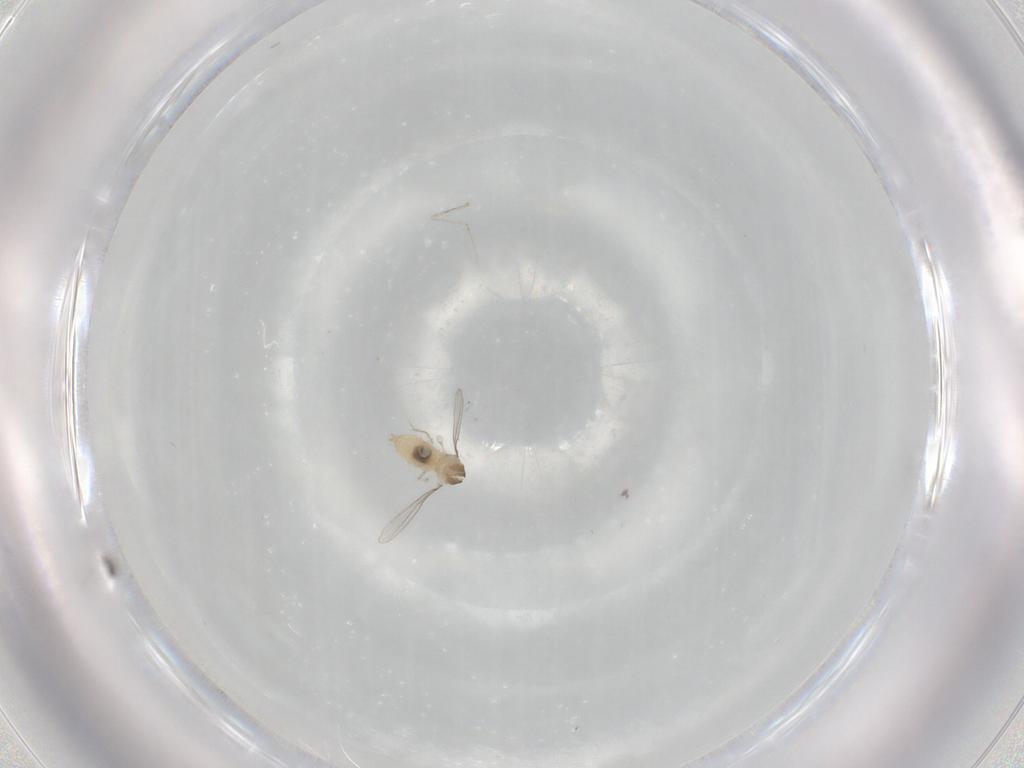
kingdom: Animalia
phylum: Arthropoda
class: Insecta
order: Diptera
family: Cecidomyiidae
